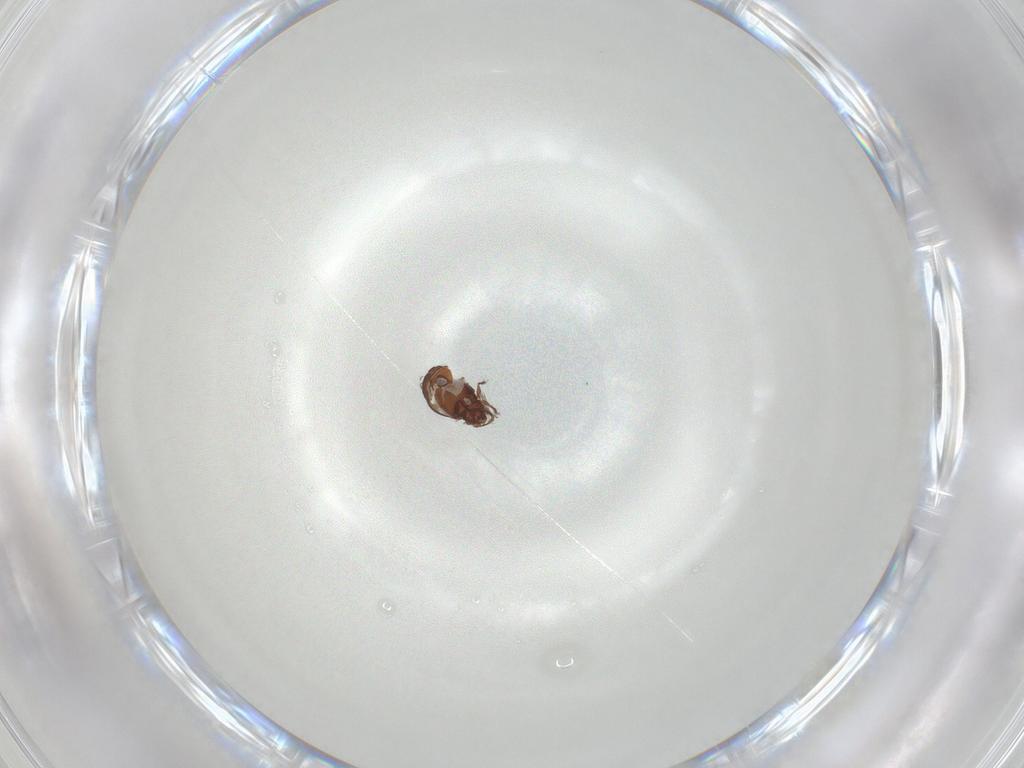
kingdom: Animalia
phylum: Arthropoda
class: Arachnida
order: Sarcoptiformes
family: Oribatulidae
